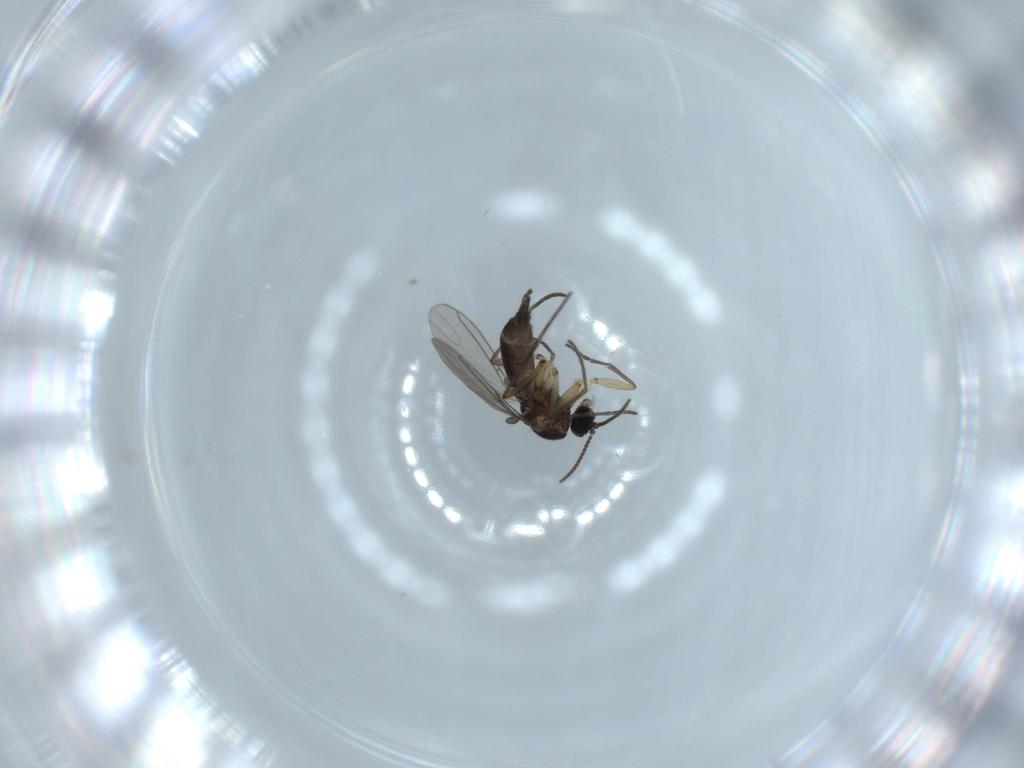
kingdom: Animalia
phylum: Arthropoda
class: Insecta
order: Diptera
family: Sciaridae
